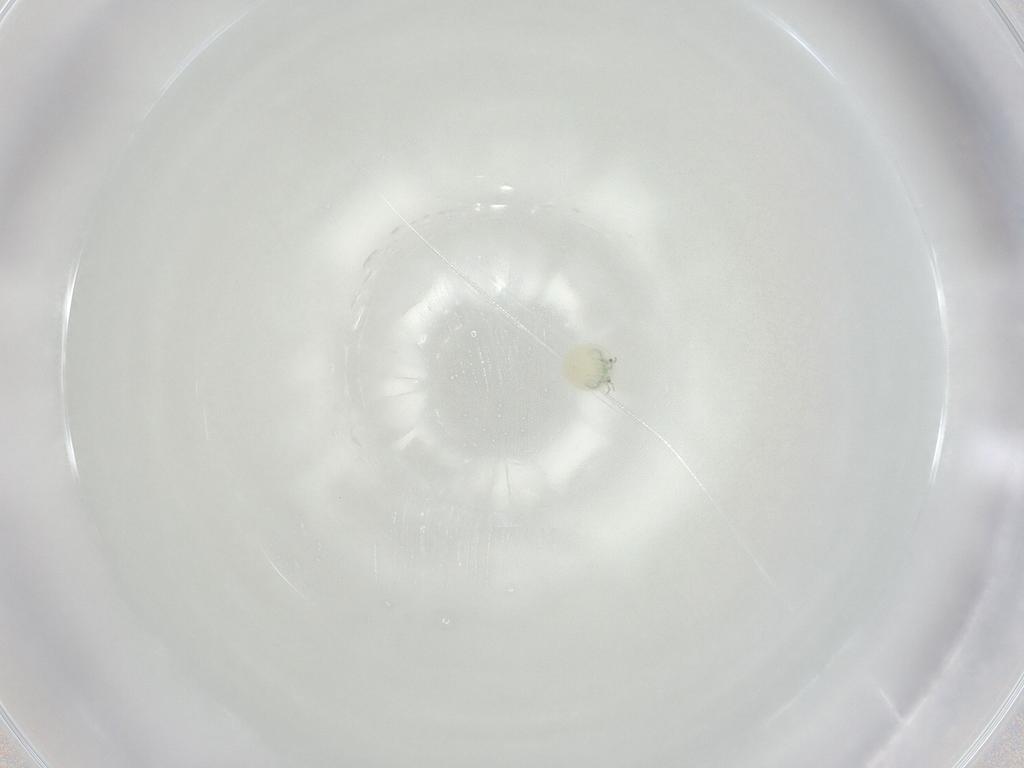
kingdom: Animalia
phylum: Arthropoda
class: Arachnida
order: Trombidiformes
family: Arrenuridae
